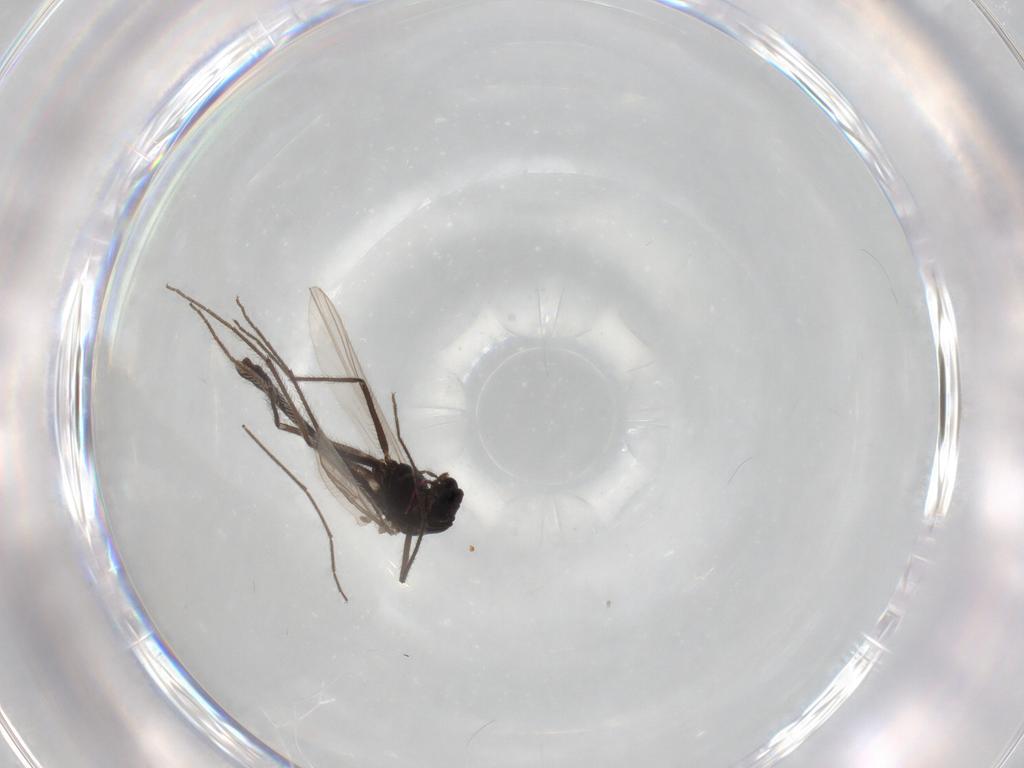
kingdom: Animalia
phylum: Arthropoda
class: Insecta
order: Diptera
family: Chironomidae
